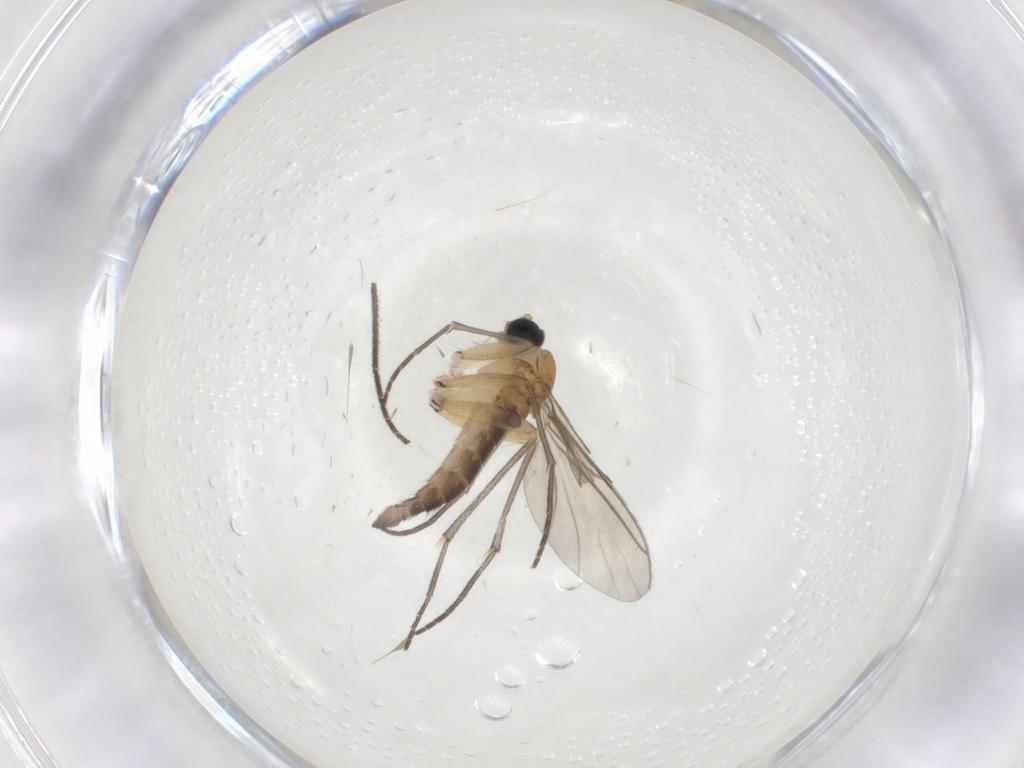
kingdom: Animalia
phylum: Arthropoda
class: Insecta
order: Diptera
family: Sciaridae
